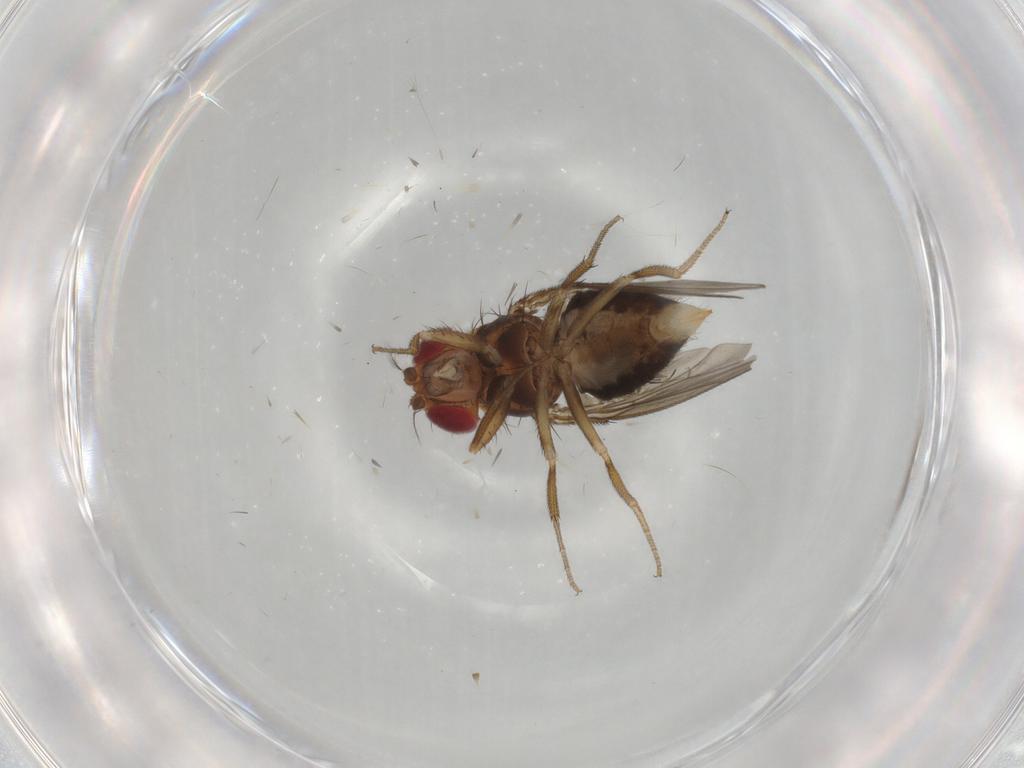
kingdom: Animalia
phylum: Arthropoda
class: Insecta
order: Diptera
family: Drosophilidae
